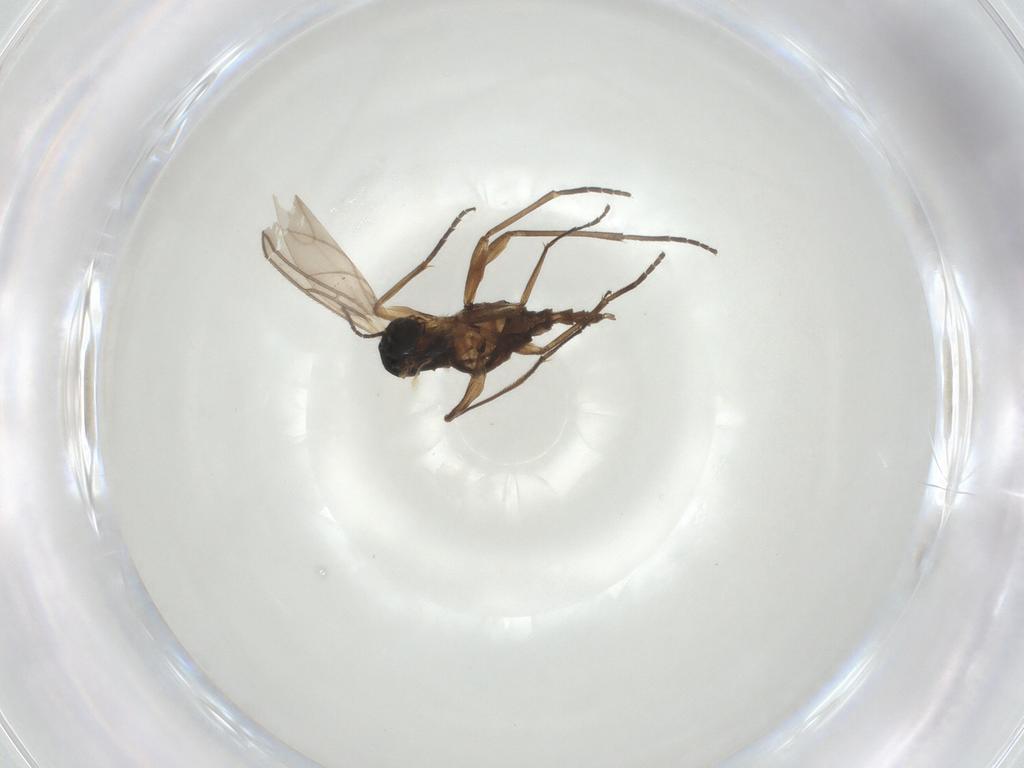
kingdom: Animalia
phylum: Arthropoda
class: Insecta
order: Diptera
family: Sciaridae
